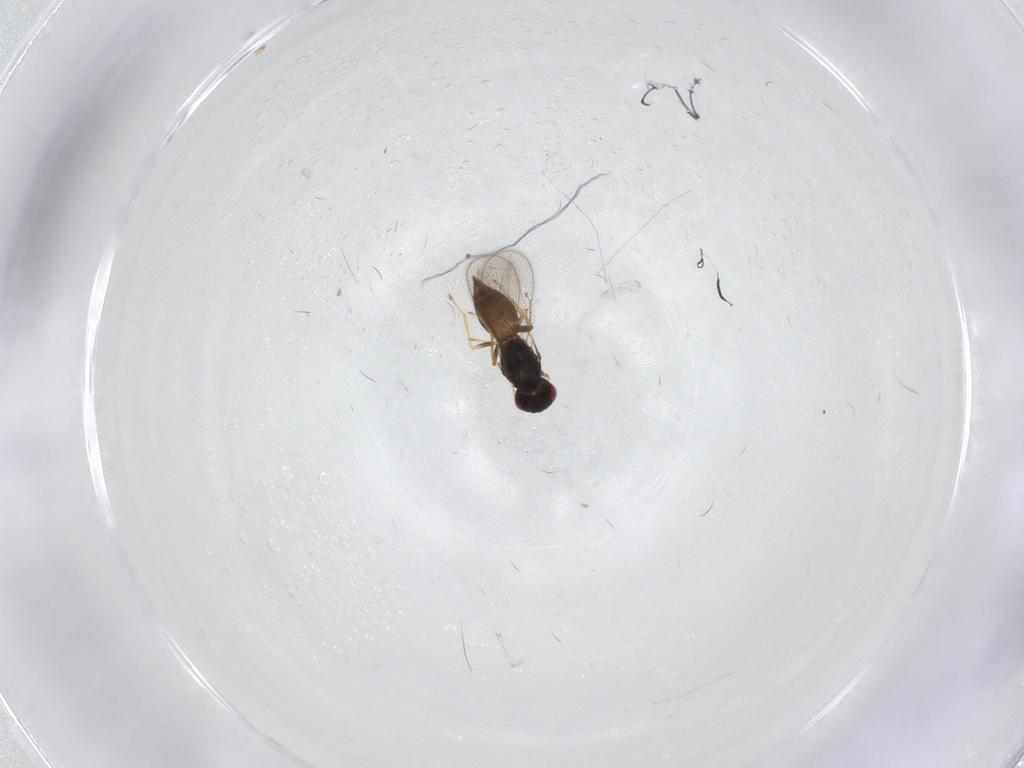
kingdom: Animalia
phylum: Arthropoda
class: Insecta
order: Hymenoptera
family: Eulophidae
